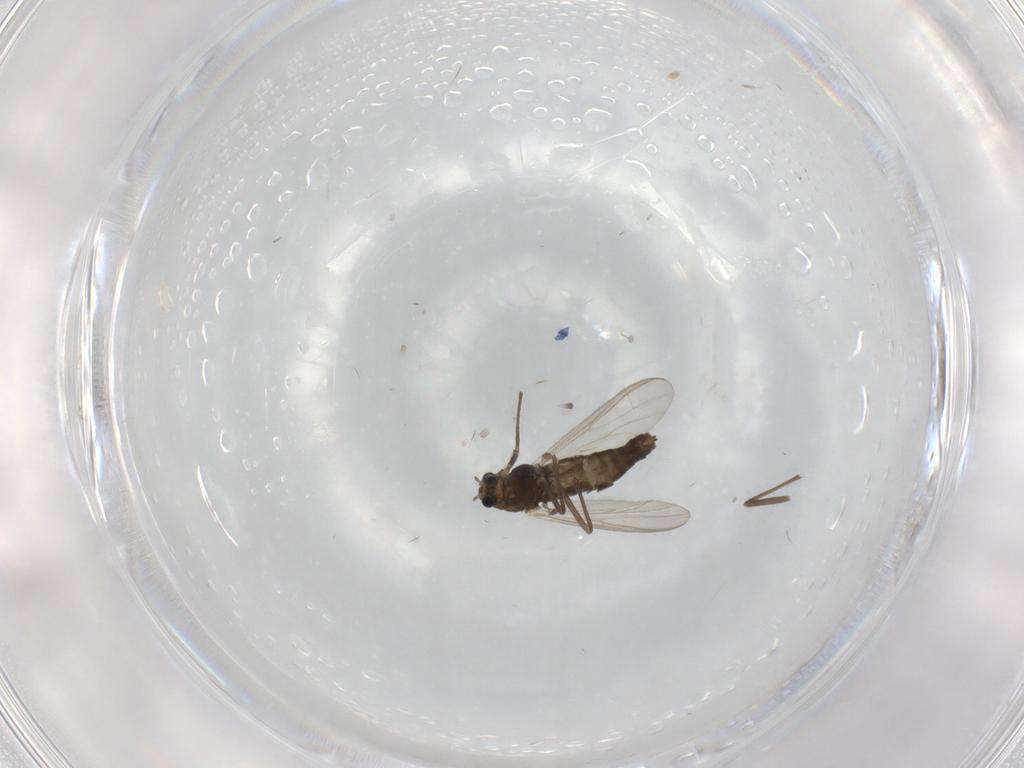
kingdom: Animalia
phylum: Arthropoda
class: Insecta
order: Diptera
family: Chironomidae
